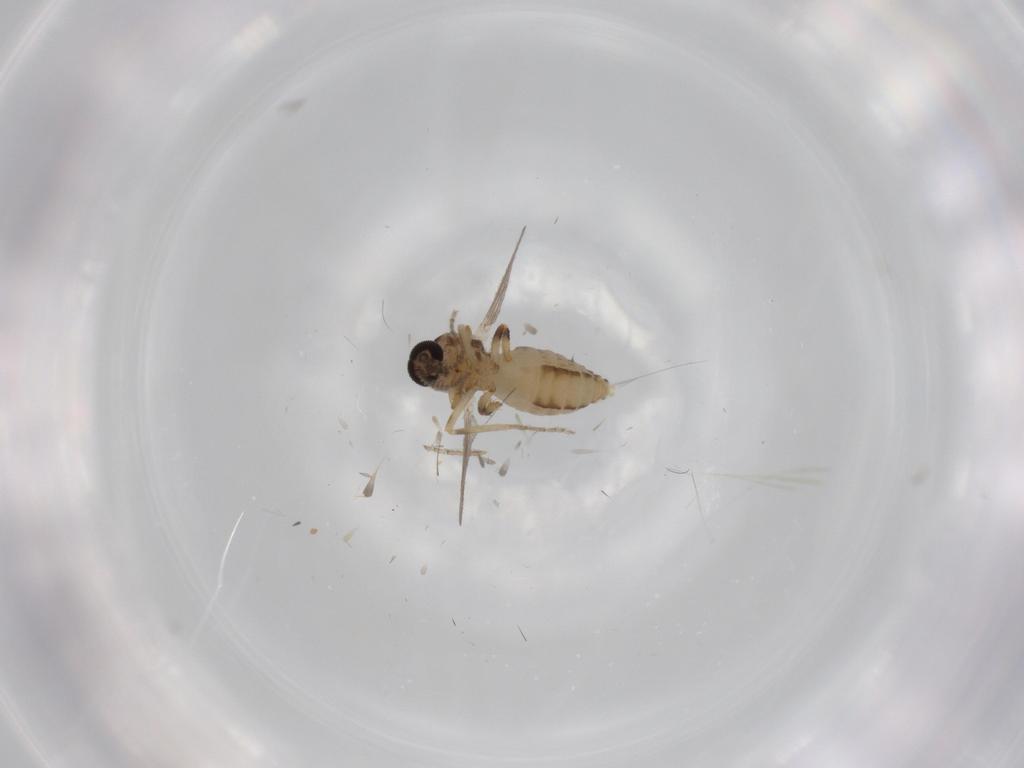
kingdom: Animalia
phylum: Arthropoda
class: Insecta
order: Diptera
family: Ceratopogonidae
